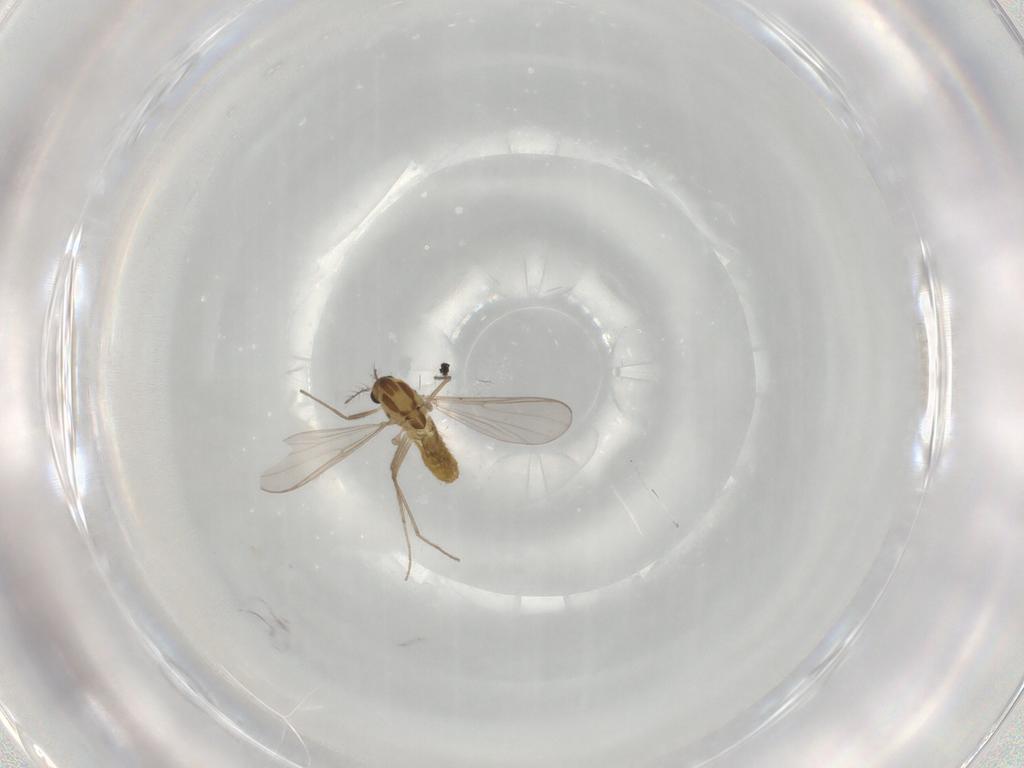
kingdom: Animalia
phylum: Arthropoda
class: Insecta
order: Diptera
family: Chironomidae
